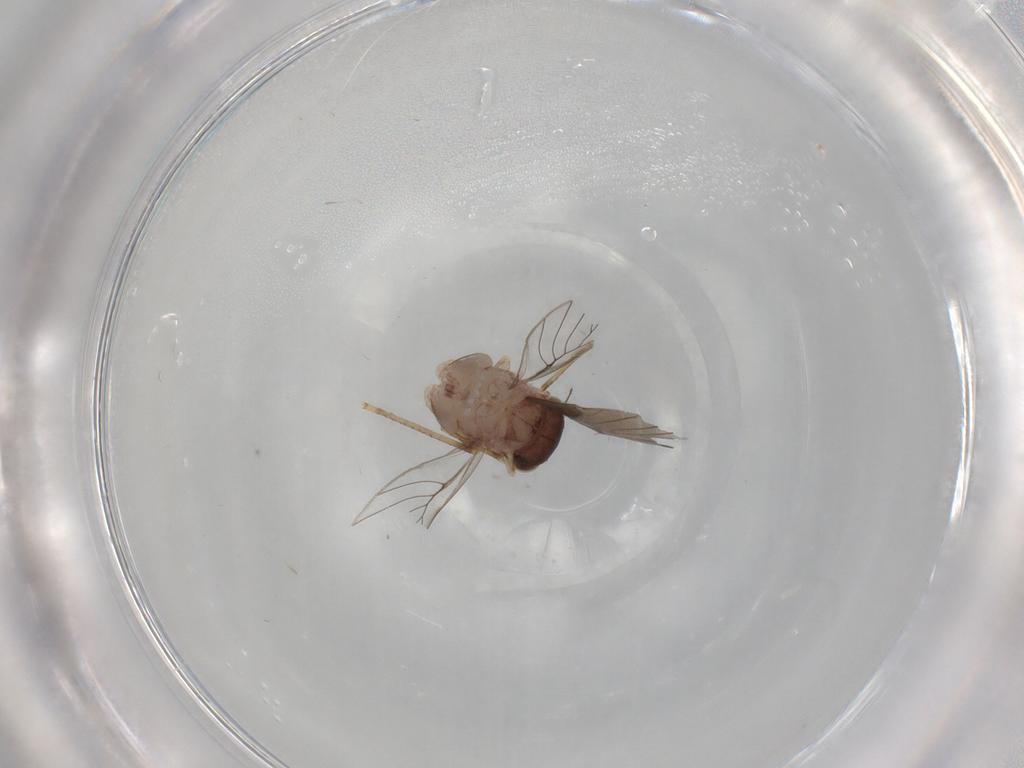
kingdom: Animalia
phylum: Arthropoda
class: Insecta
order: Psocodea
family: Lepidopsocidae
